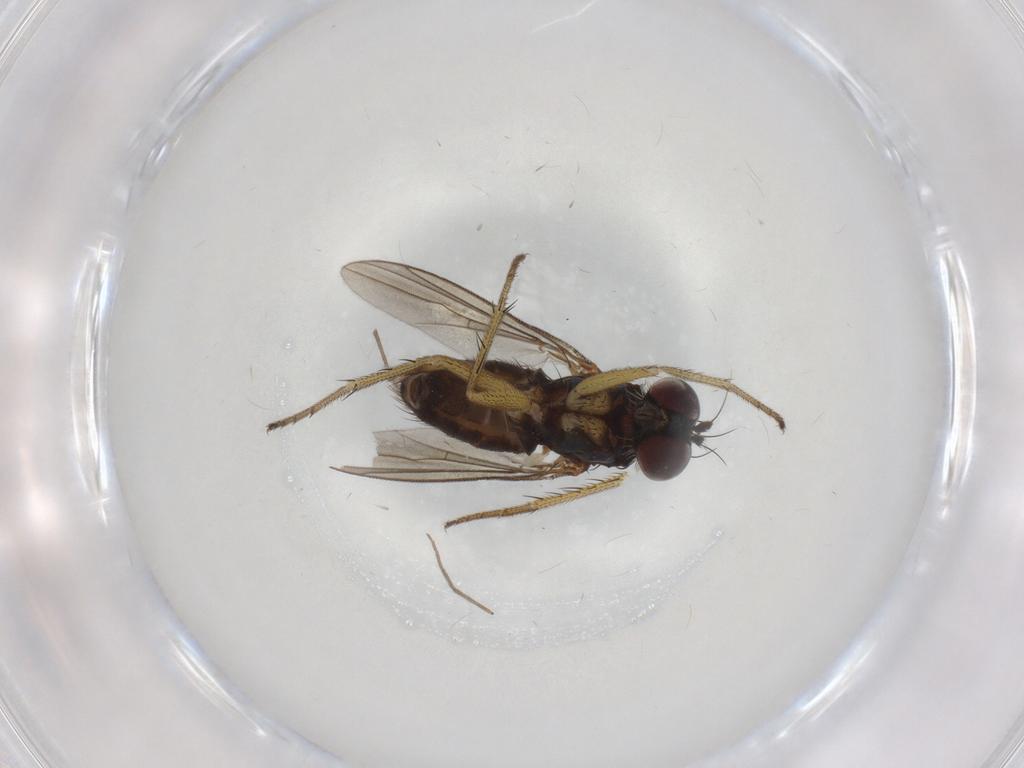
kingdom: Animalia
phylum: Arthropoda
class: Insecta
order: Diptera
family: Dolichopodidae
